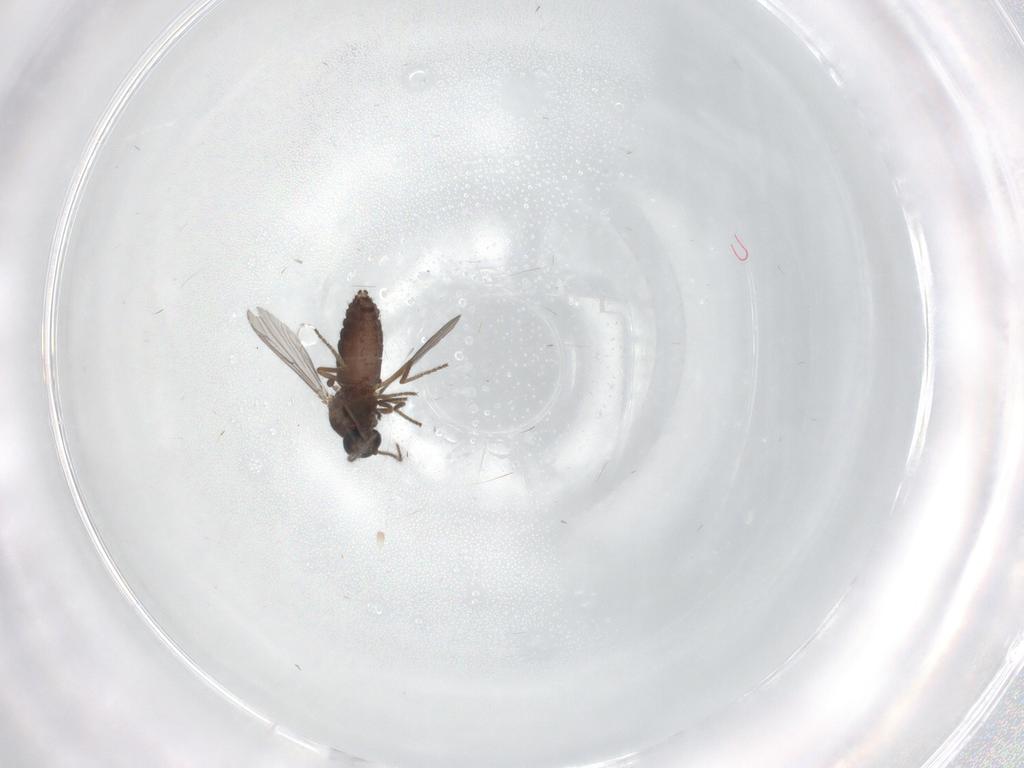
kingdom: Animalia
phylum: Arthropoda
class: Insecta
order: Diptera
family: Ceratopogonidae
